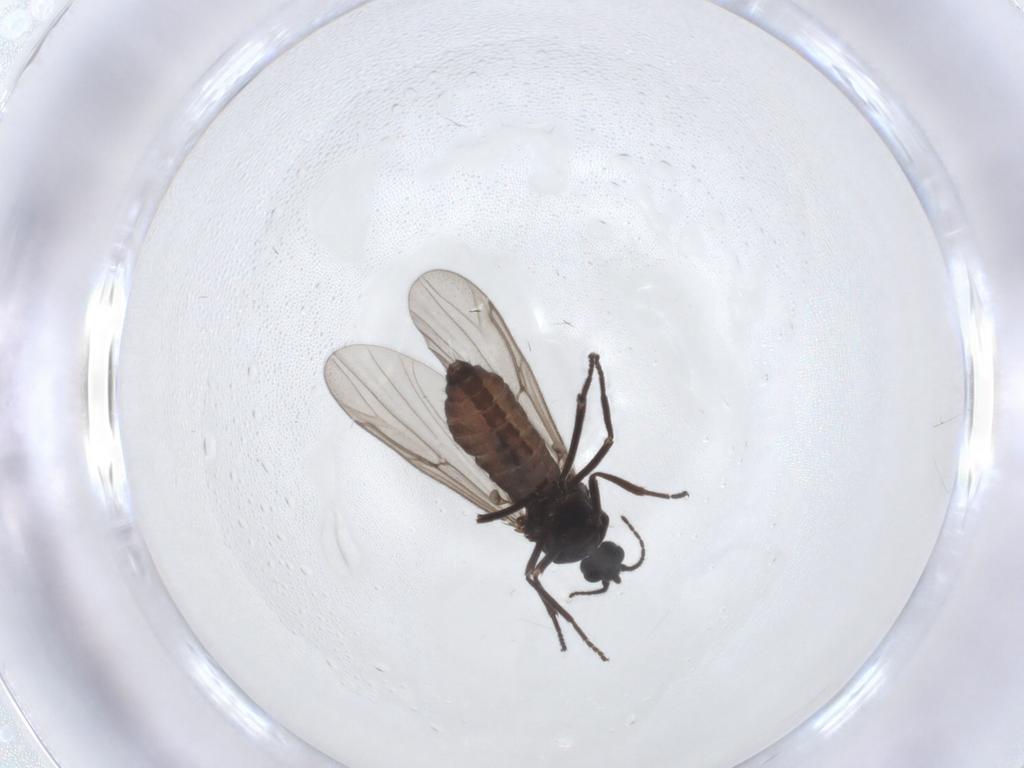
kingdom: Animalia
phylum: Arthropoda
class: Insecta
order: Diptera
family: Ceratopogonidae
